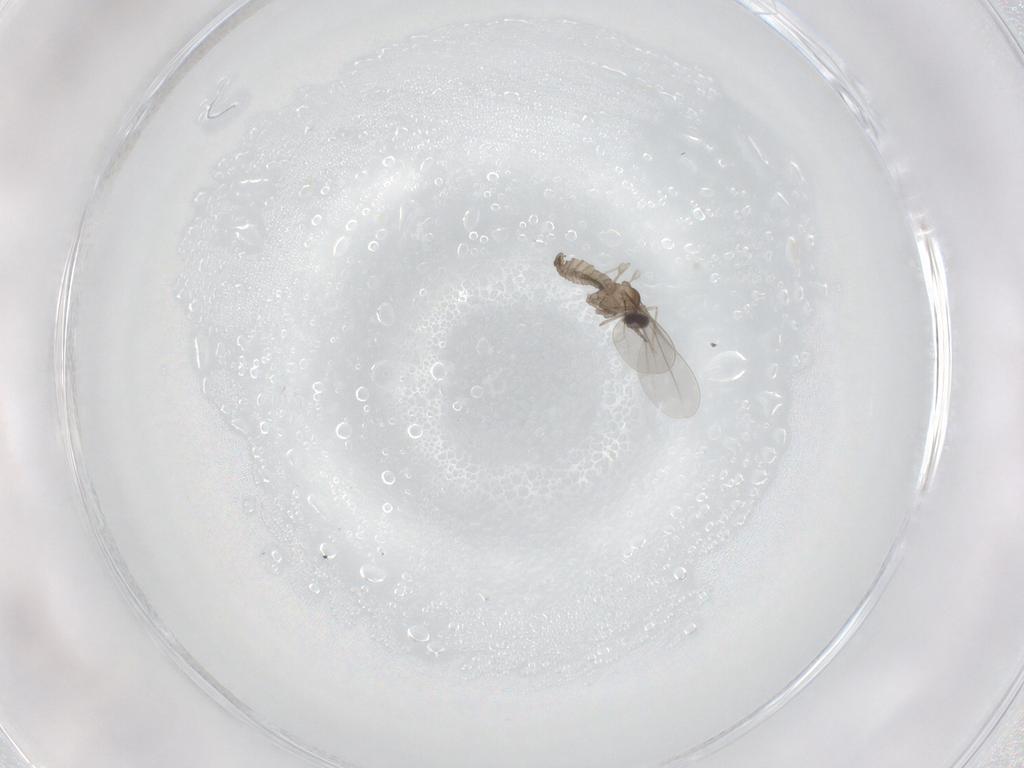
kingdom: Animalia
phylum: Arthropoda
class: Insecta
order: Diptera
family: Cecidomyiidae
